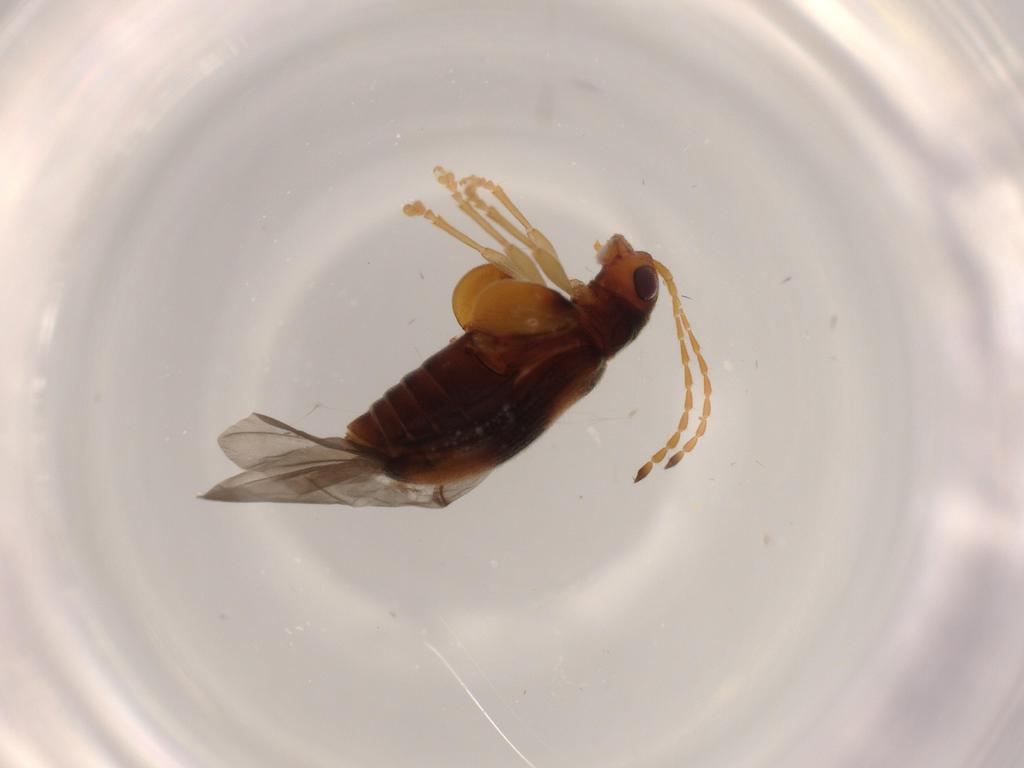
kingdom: Animalia
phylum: Arthropoda
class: Insecta
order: Coleoptera
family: Chrysomelidae
